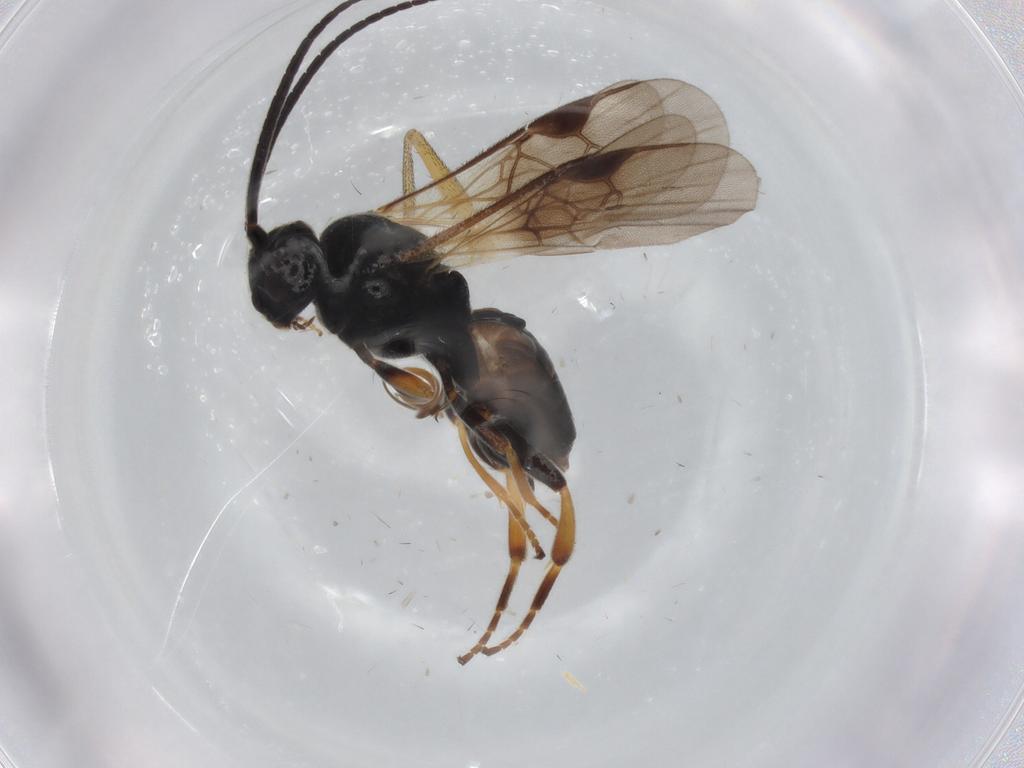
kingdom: Animalia
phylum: Arthropoda
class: Insecta
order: Hymenoptera
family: Braconidae
